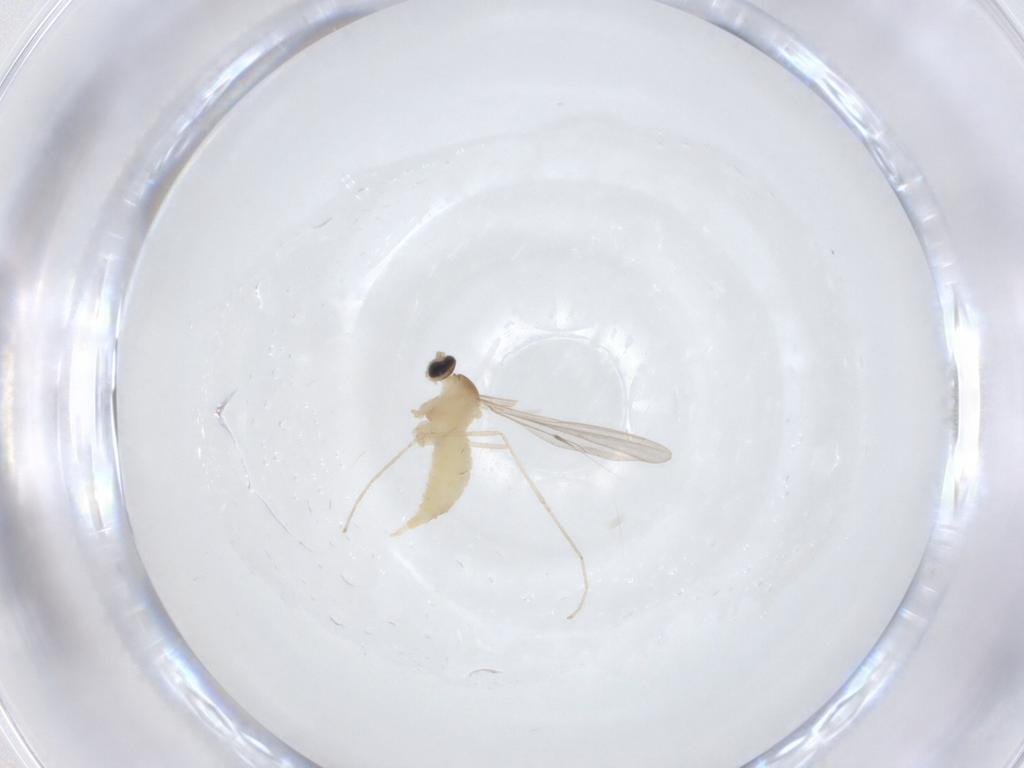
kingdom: Animalia
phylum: Arthropoda
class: Insecta
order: Diptera
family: Cecidomyiidae
